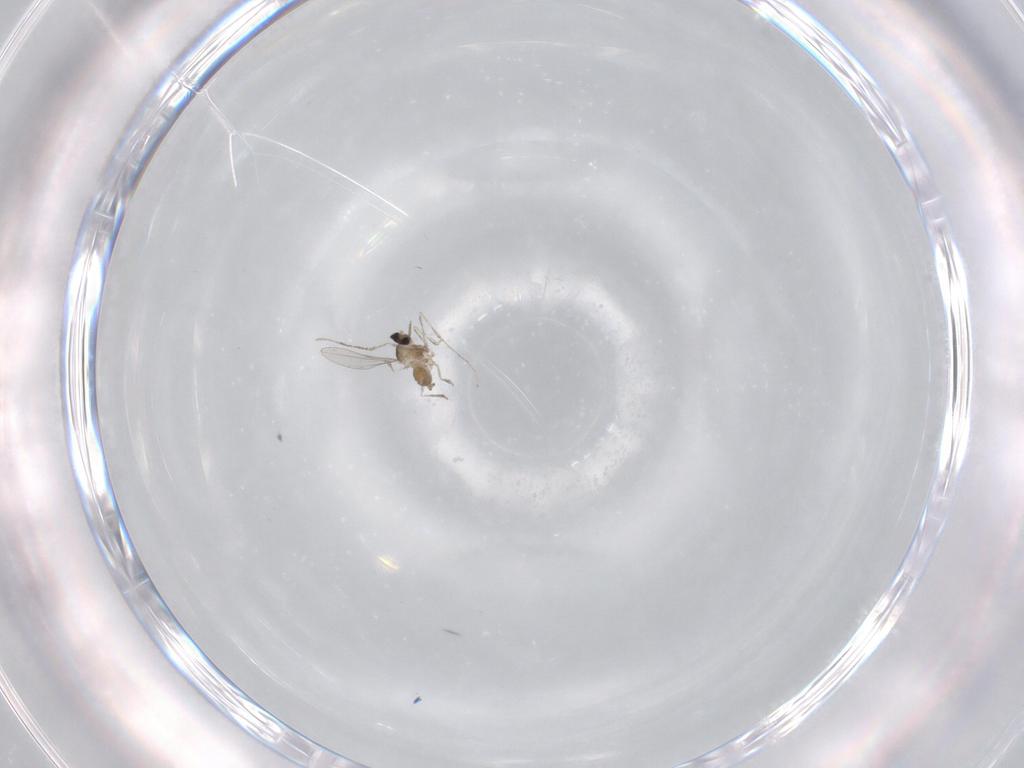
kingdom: Animalia
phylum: Arthropoda
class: Insecta
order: Diptera
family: Cecidomyiidae
